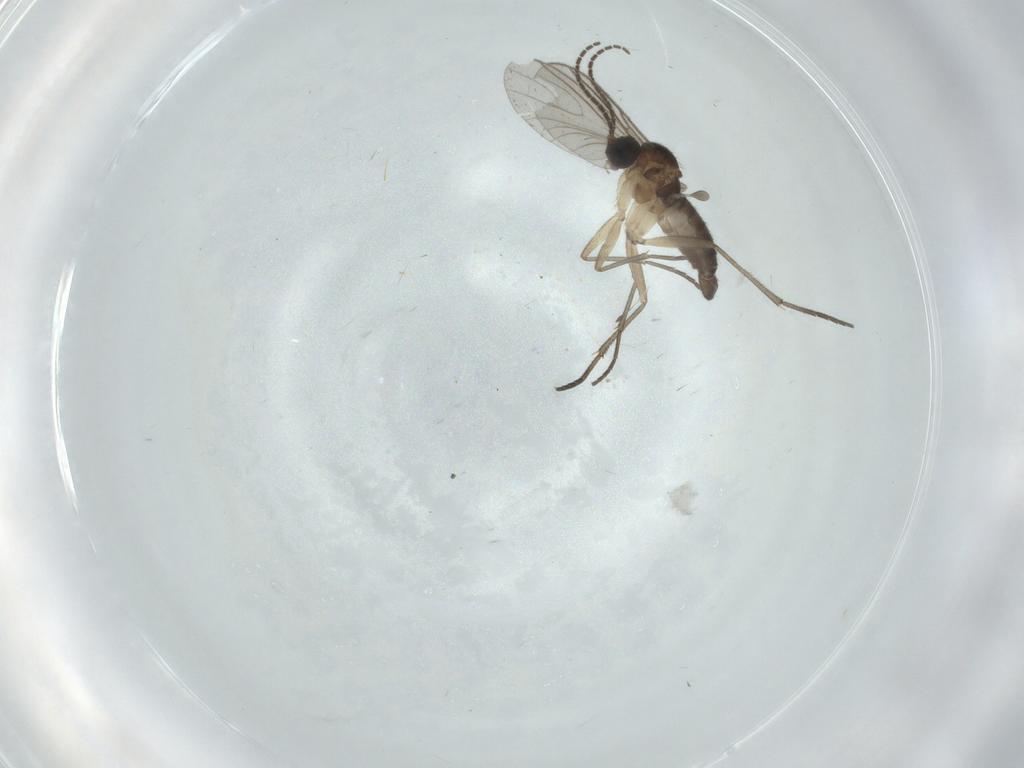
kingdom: Animalia
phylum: Arthropoda
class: Insecta
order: Diptera
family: Sciaridae
